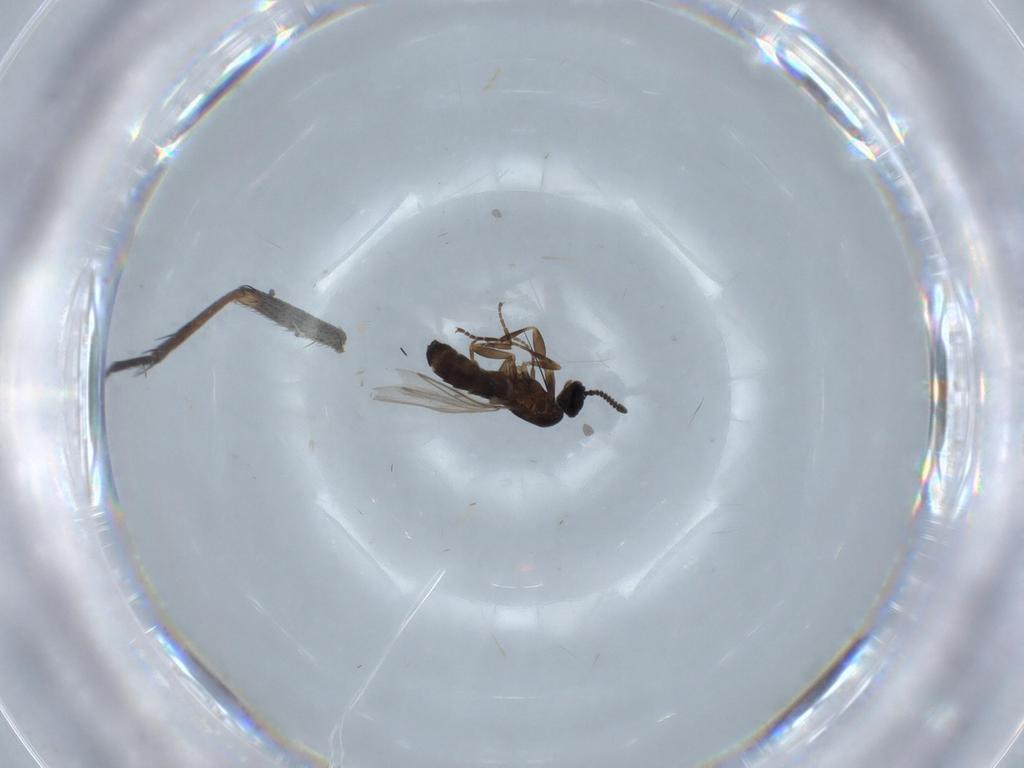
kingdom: Animalia
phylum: Arthropoda
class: Insecta
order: Diptera
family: Scatopsidae
